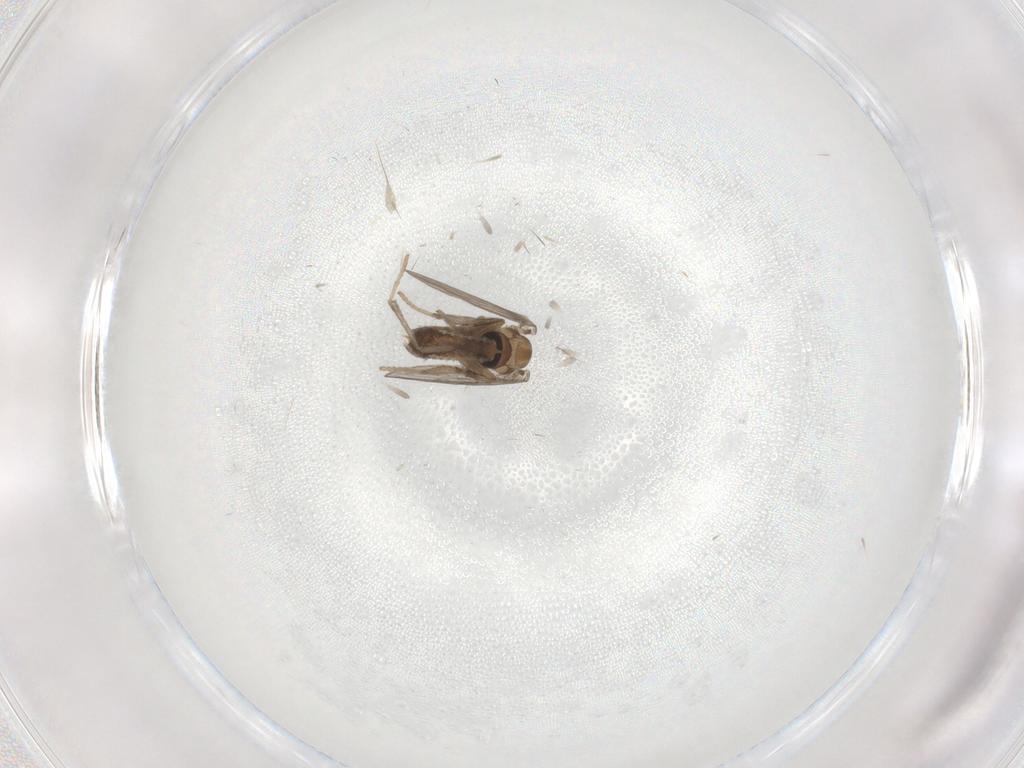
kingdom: Animalia
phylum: Arthropoda
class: Insecta
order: Diptera
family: Psychodidae
